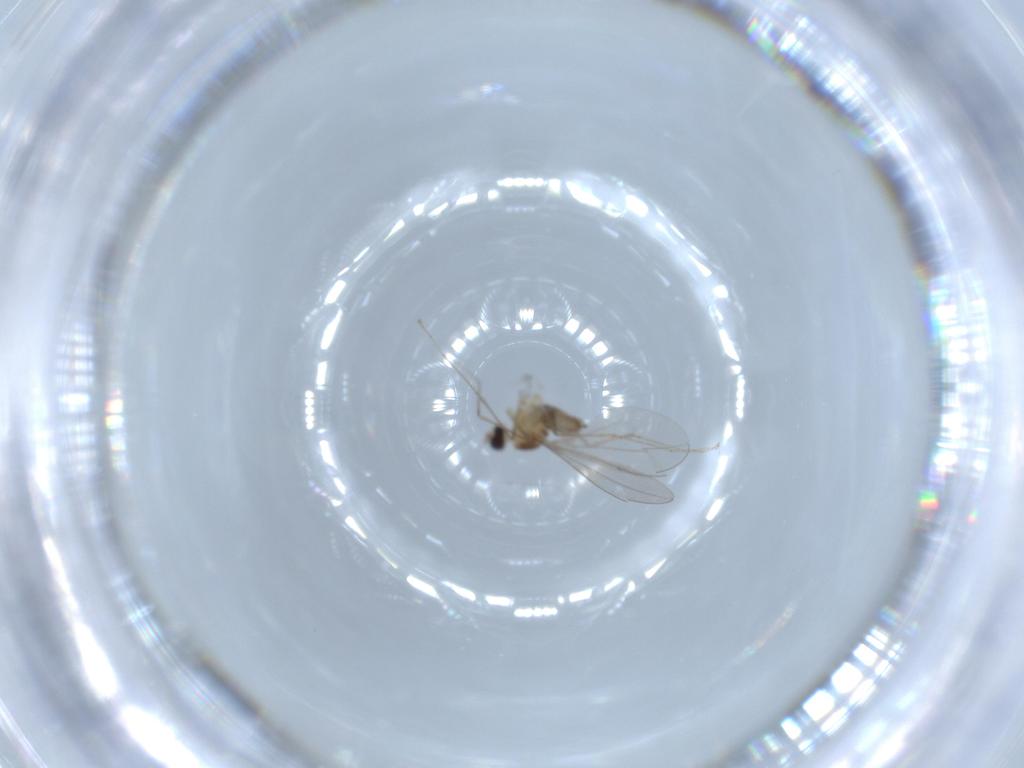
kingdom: Animalia
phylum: Arthropoda
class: Insecta
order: Diptera
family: Cecidomyiidae
